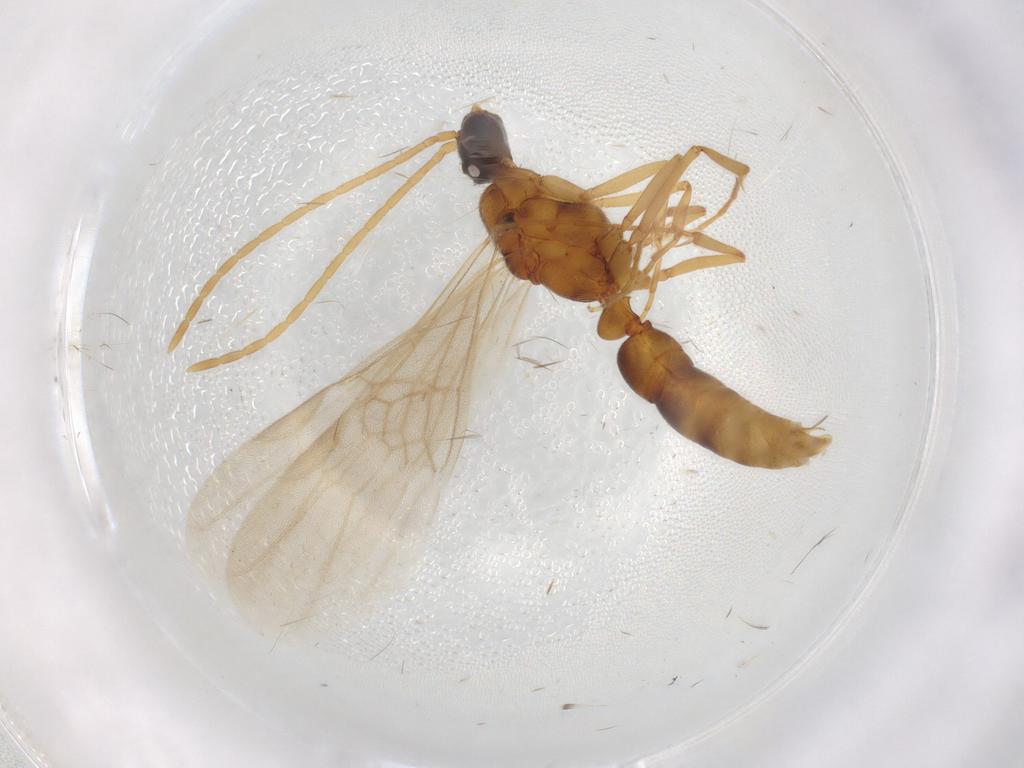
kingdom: Animalia
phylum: Arthropoda
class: Insecta
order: Hymenoptera
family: Formicidae
